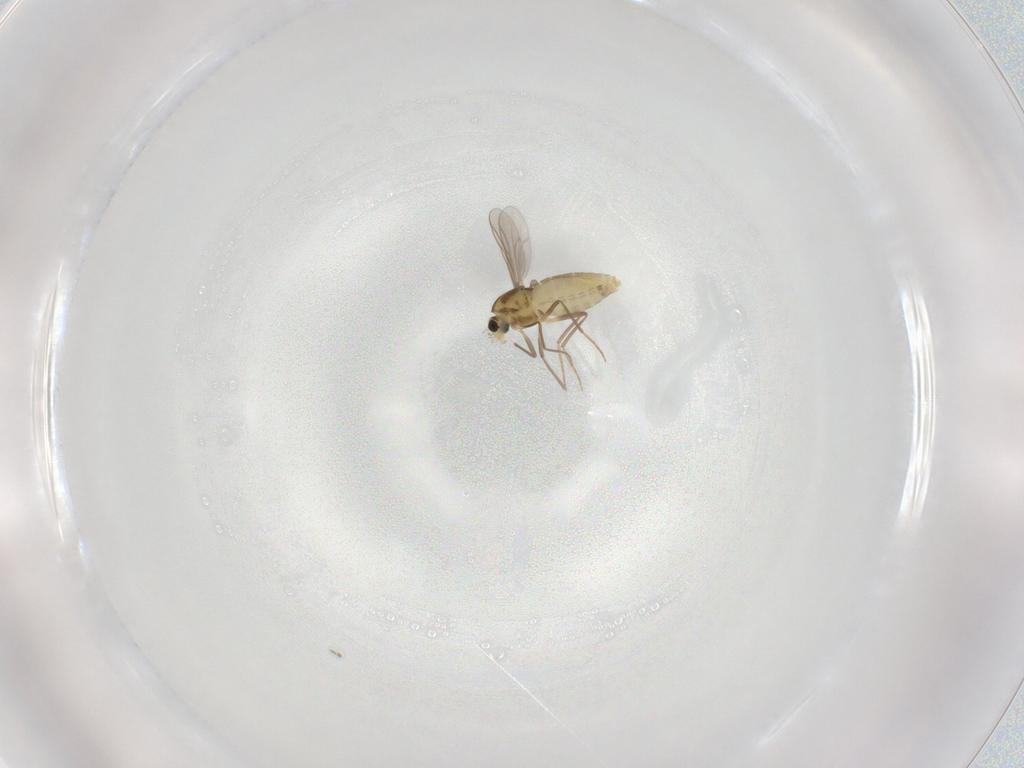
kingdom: Animalia
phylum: Arthropoda
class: Insecta
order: Diptera
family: Chironomidae
